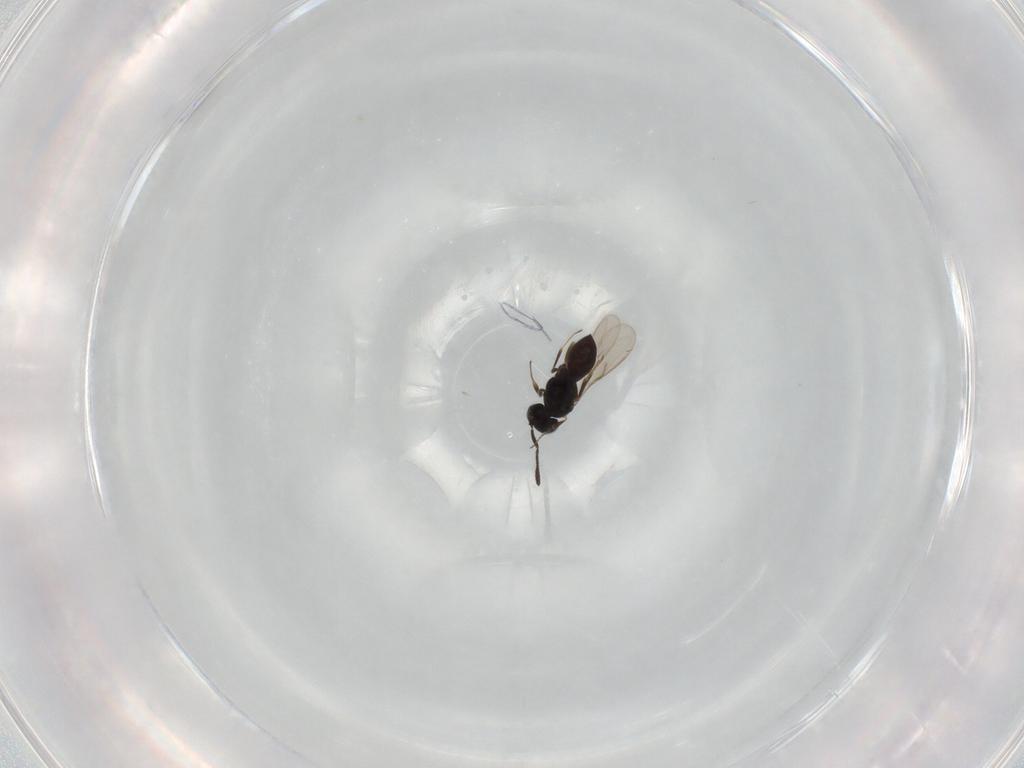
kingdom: Animalia
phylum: Arthropoda
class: Insecta
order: Hymenoptera
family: Scelionidae
